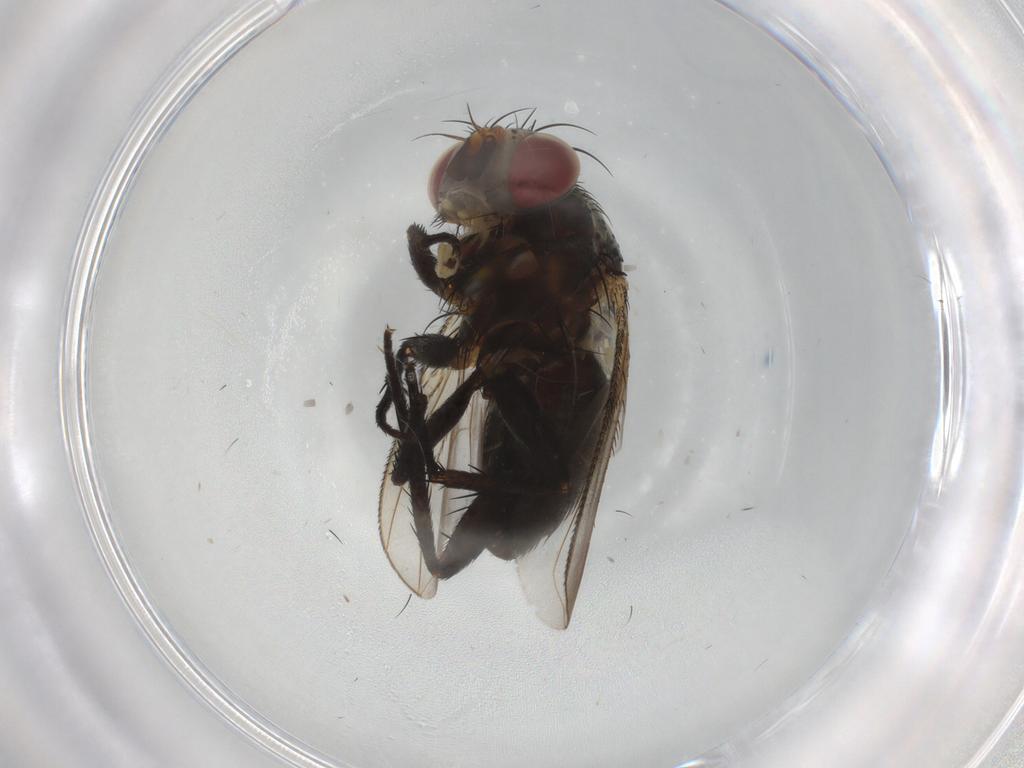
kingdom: Animalia
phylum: Arthropoda
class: Insecta
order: Diptera
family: Tachinidae
